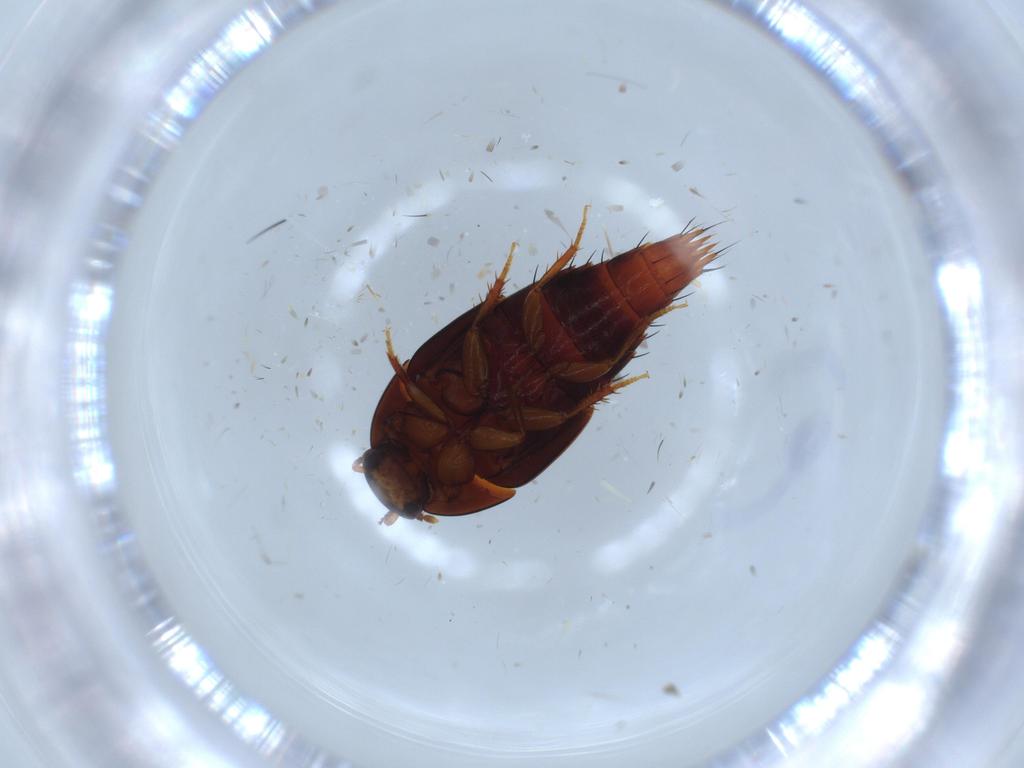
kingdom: Animalia
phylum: Arthropoda
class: Insecta
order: Coleoptera
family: Staphylinidae
